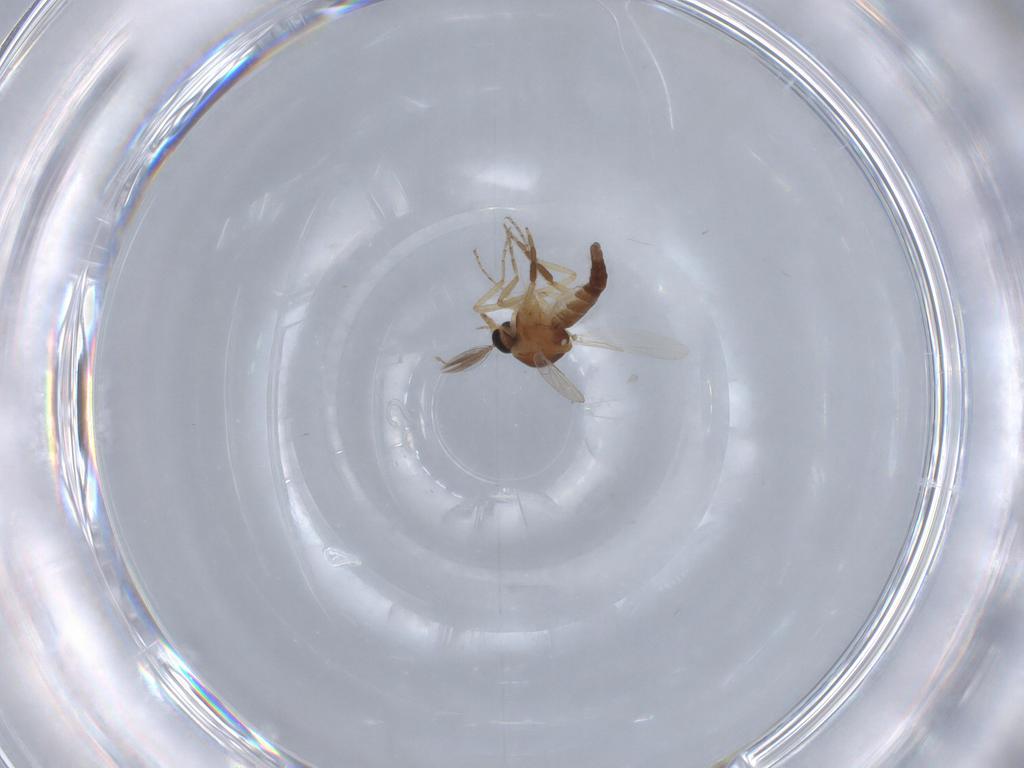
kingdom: Animalia
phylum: Arthropoda
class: Insecta
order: Diptera
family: Ceratopogonidae
